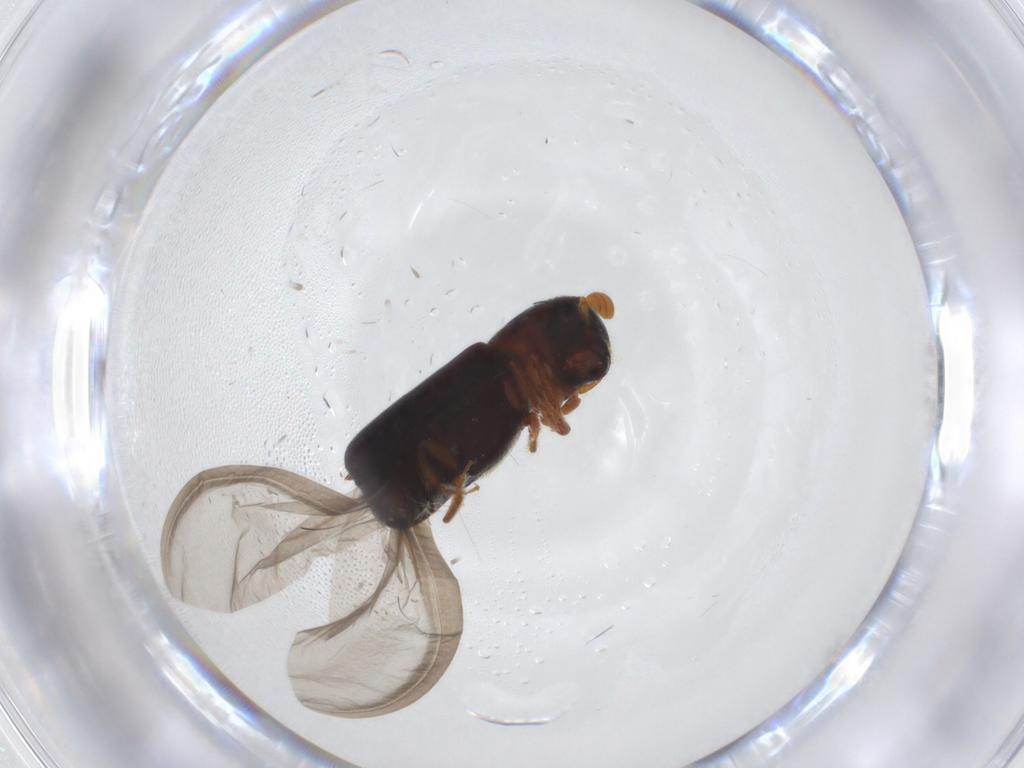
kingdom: Animalia
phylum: Arthropoda
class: Insecta
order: Coleoptera
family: Curculionidae
